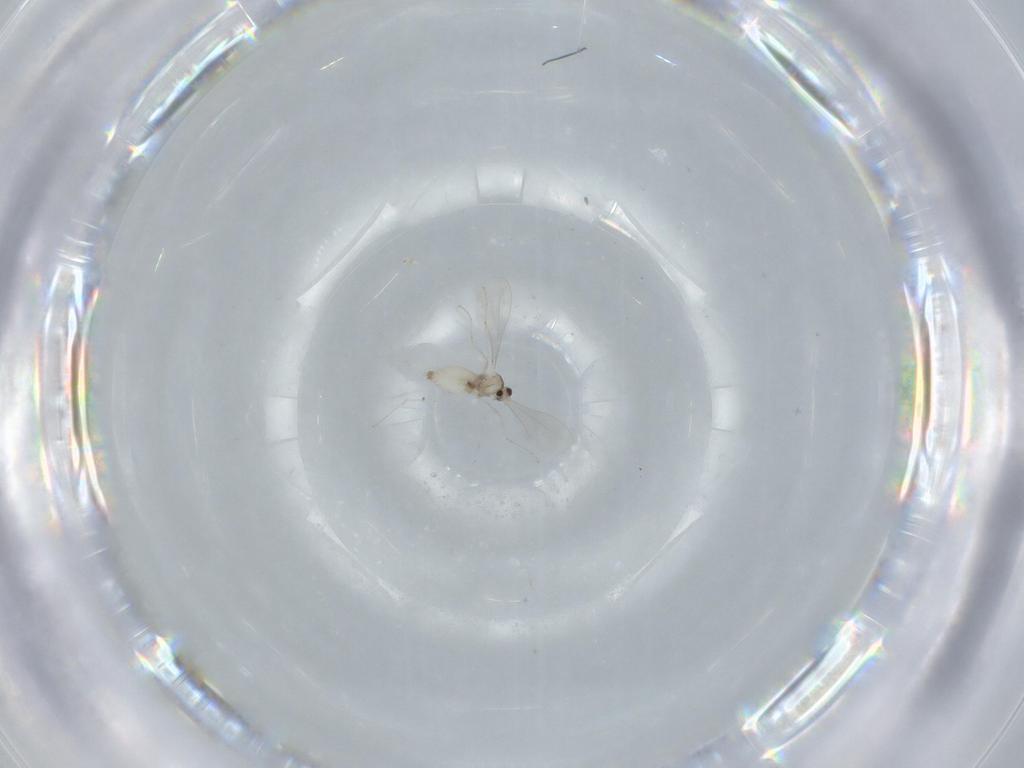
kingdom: Animalia
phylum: Arthropoda
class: Insecta
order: Diptera
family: Cecidomyiidae
